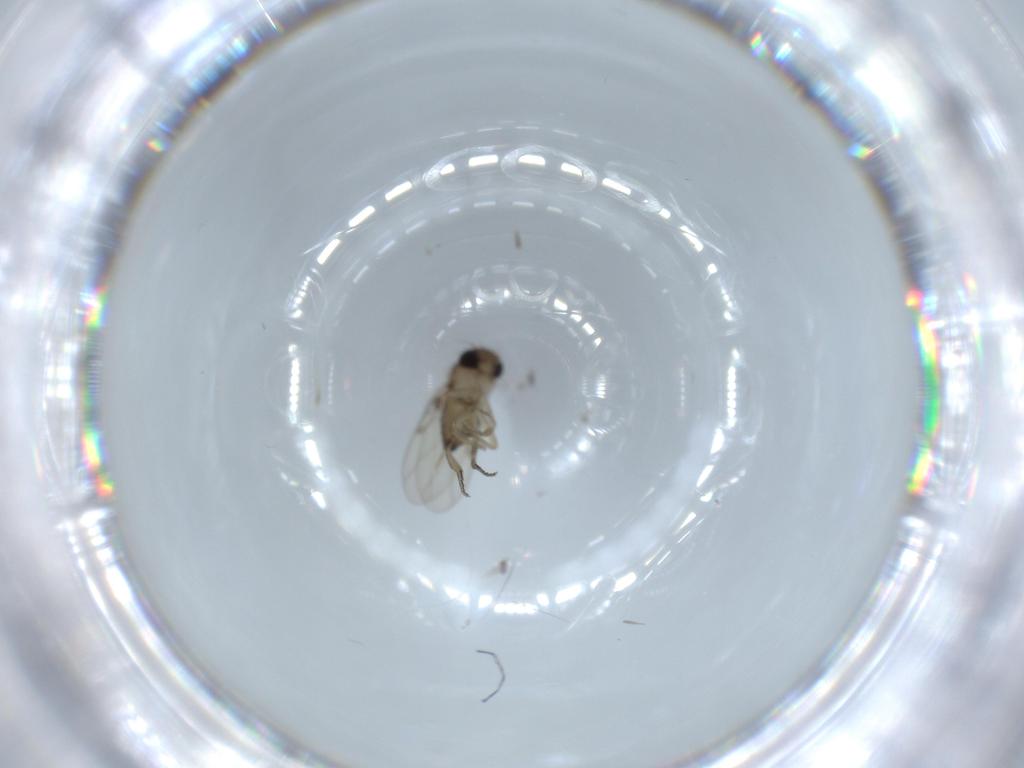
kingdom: Animalia
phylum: Arthropoda
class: Insecta
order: Diptera
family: Phoridae
